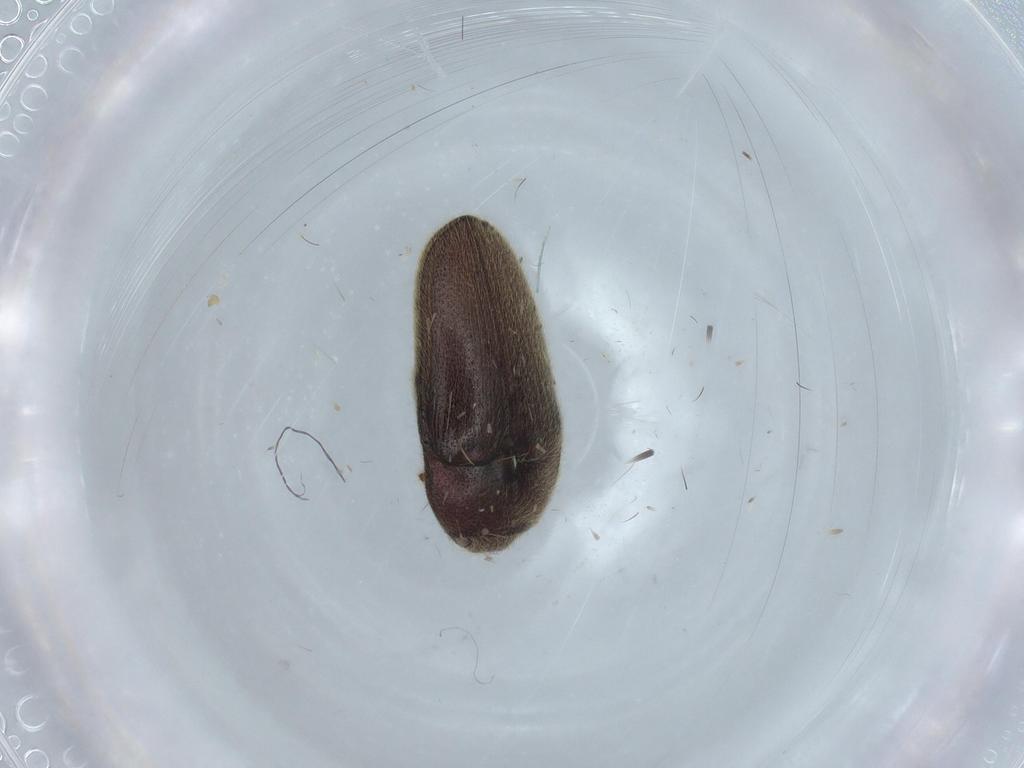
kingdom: Animalia
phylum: Arthropoda
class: Insecta
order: Coleoptera
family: Throscidae
